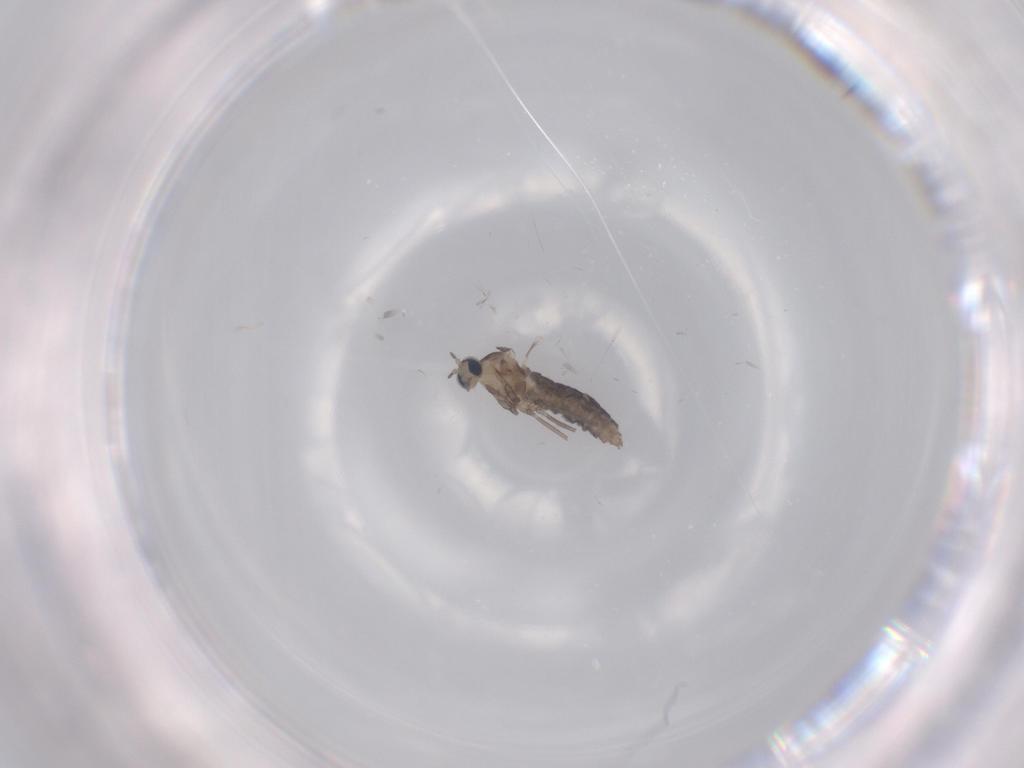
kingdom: Animalia
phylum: Arthropoda
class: Insecta
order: Diptera
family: Cecidomyiidae
